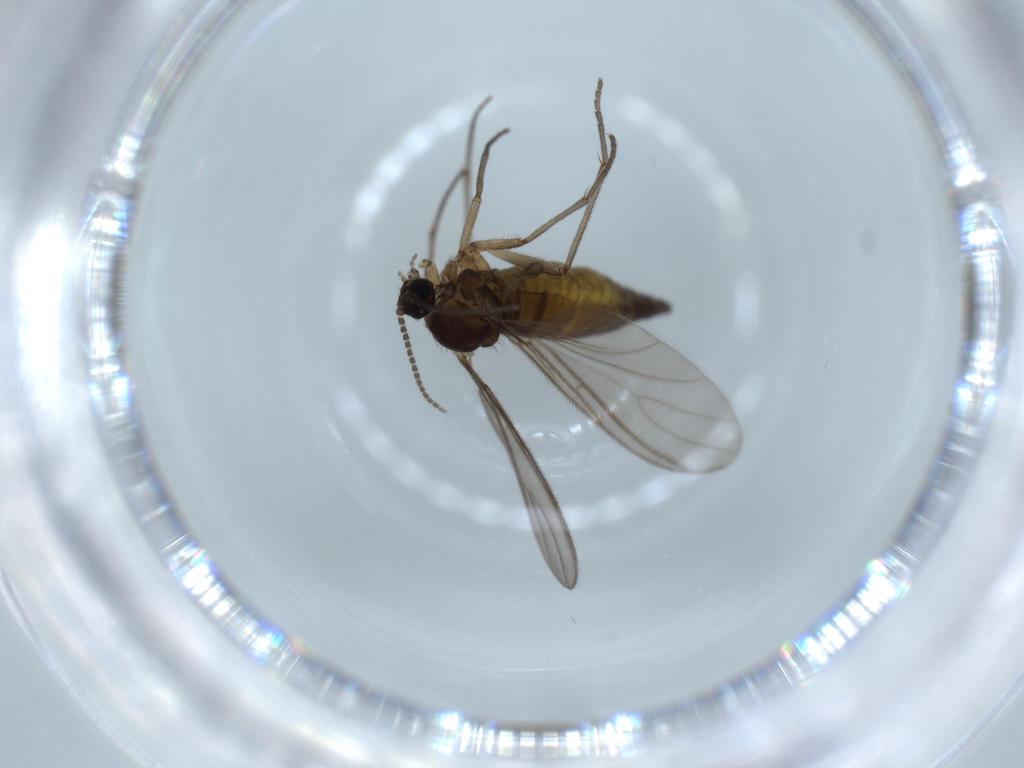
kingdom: Animalia
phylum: Arthropoda
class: Insecta
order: Diptera
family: Sciaridae
